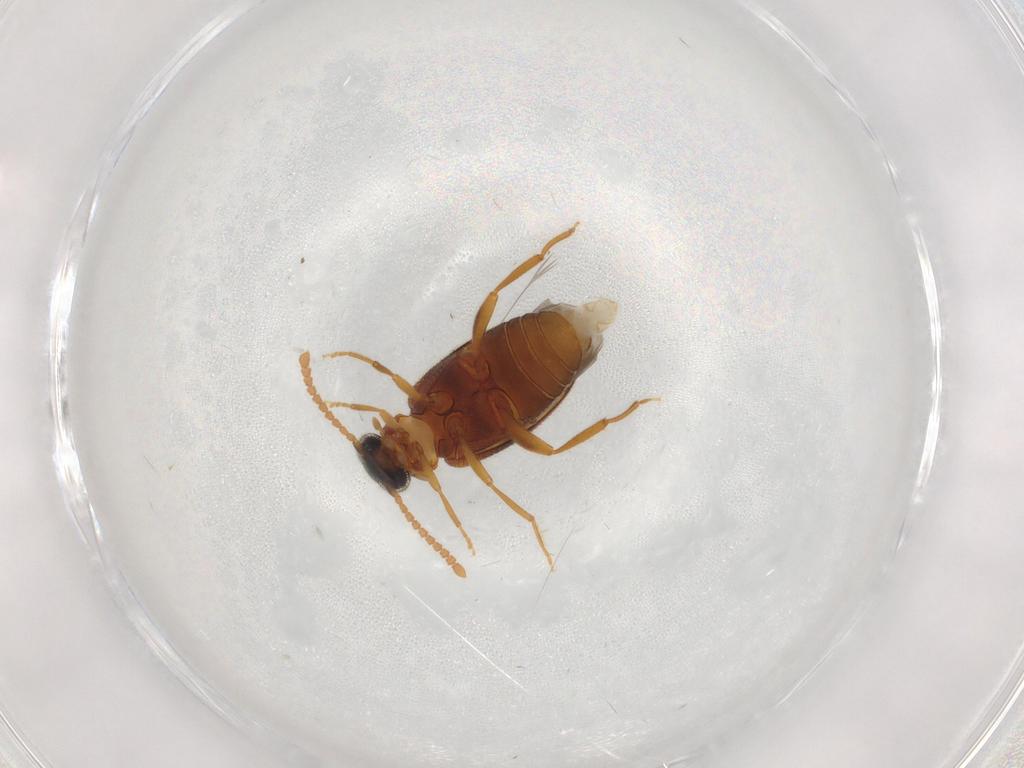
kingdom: Animalia
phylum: Arthropoda
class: Insecta
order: Coleoptera
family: Aderidae
